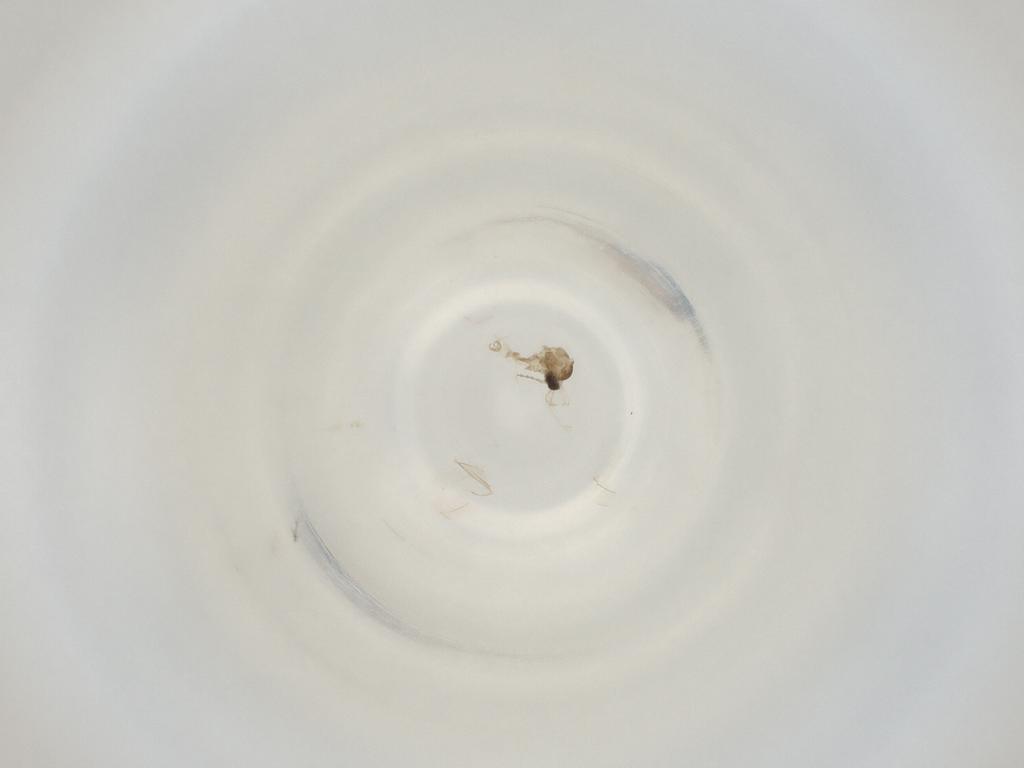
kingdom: Animalia
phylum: Arthropoda
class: Insecta
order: Diptera
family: Cecidomyiidae
